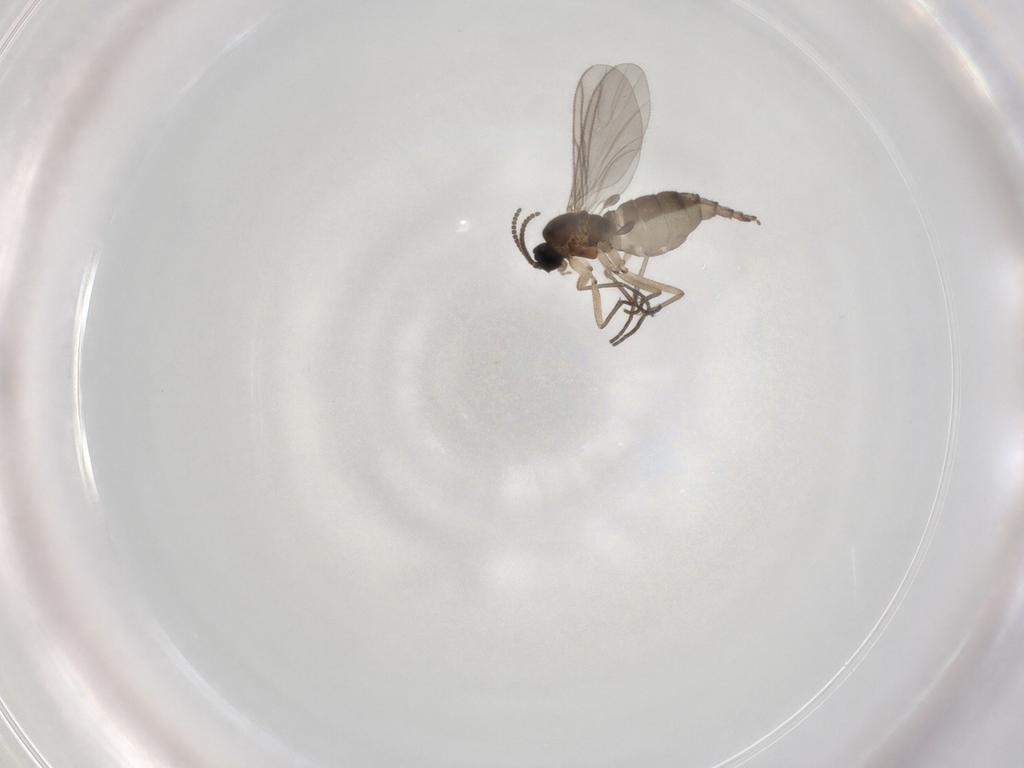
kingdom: Animalia
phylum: Arthropoda
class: Insecta
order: Diptera
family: Sciaridae
